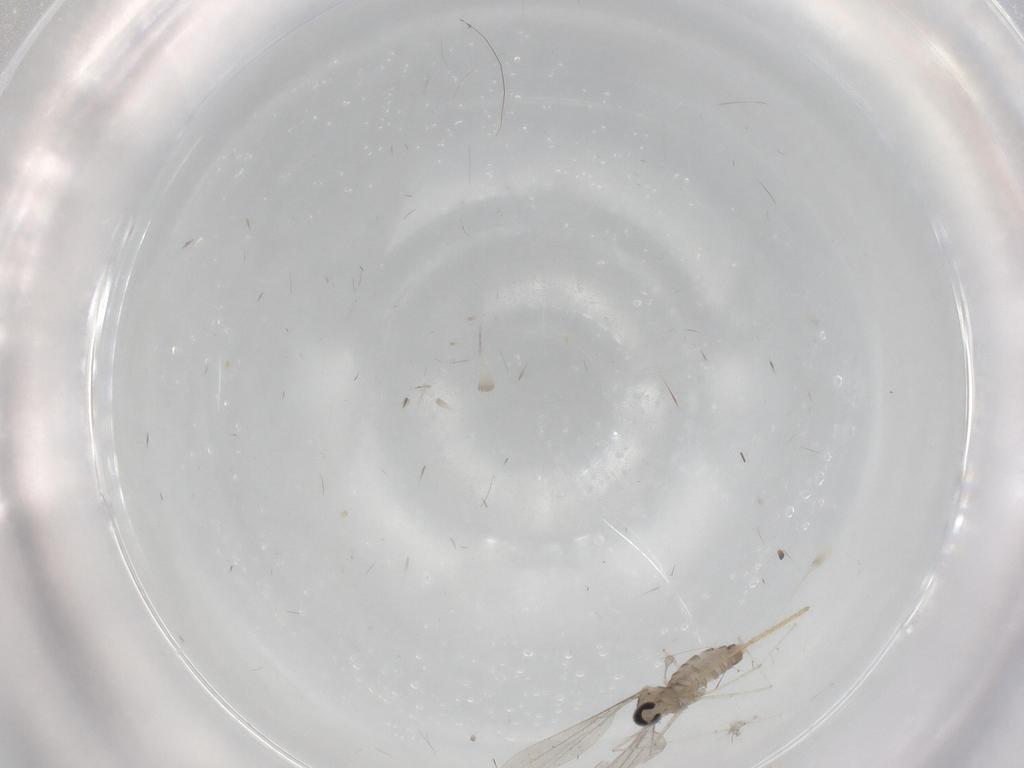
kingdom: Animalia
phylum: Arthropoda
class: Insecta
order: Diptera
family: Cecidomyiidae
